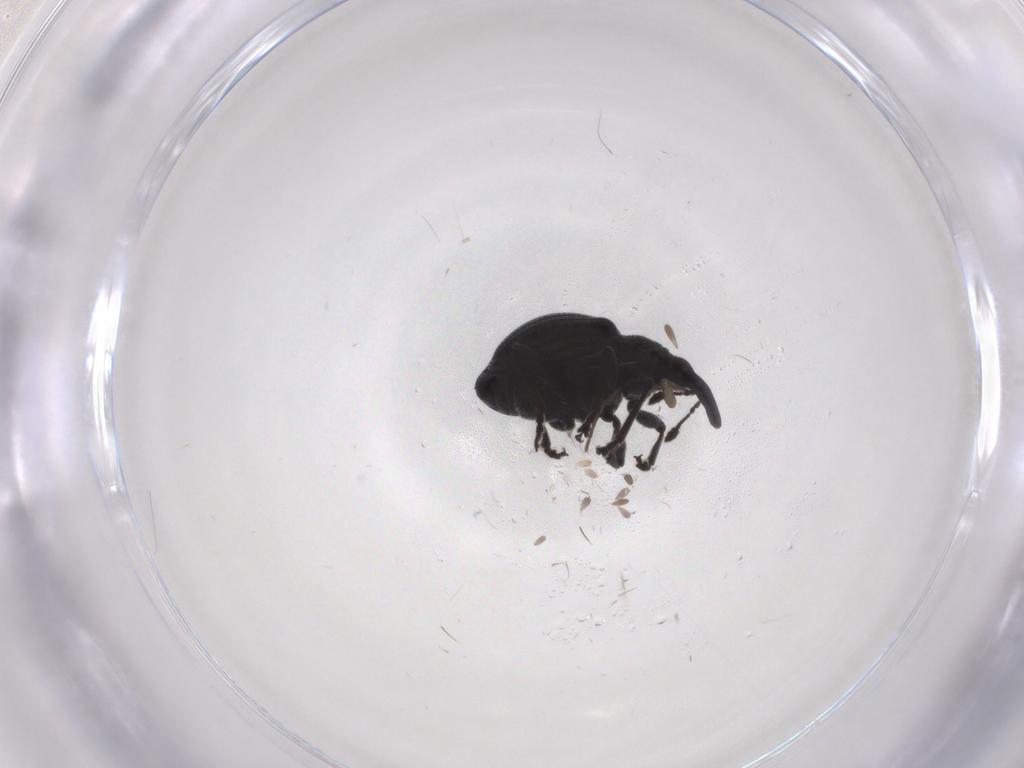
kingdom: Animalia
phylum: Arthropoda
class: Insecta
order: Coleoptera
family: Brentidae
